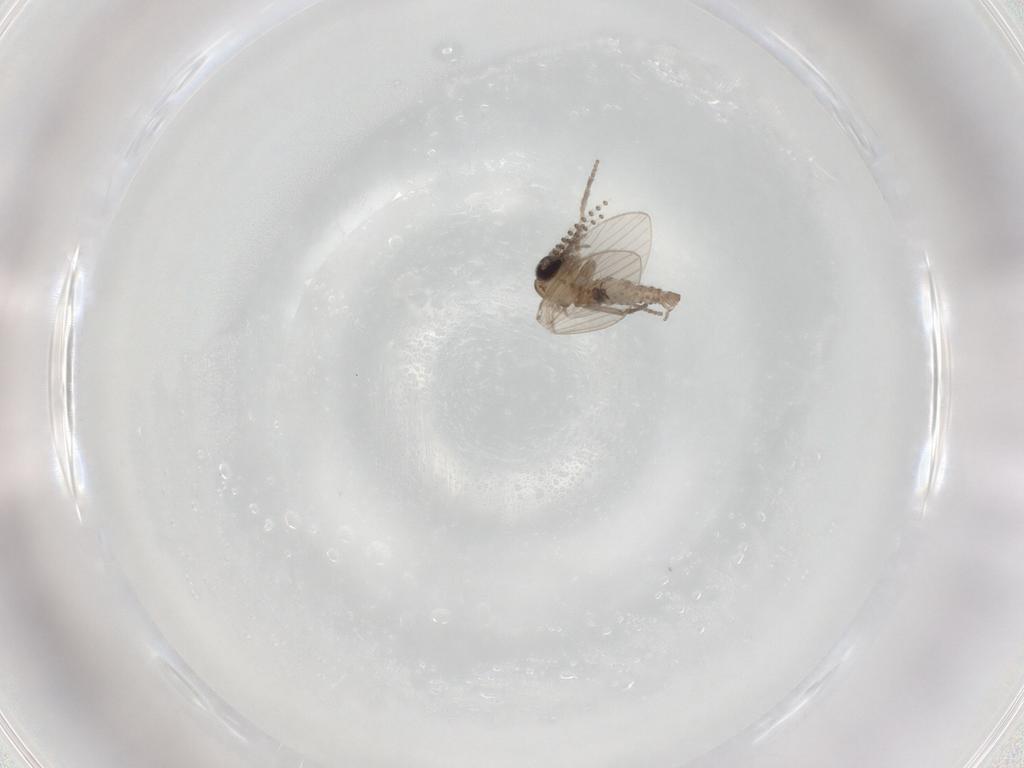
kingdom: Animalia
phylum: Arthropoda
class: Insecta
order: Diptera
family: Psychodidae
